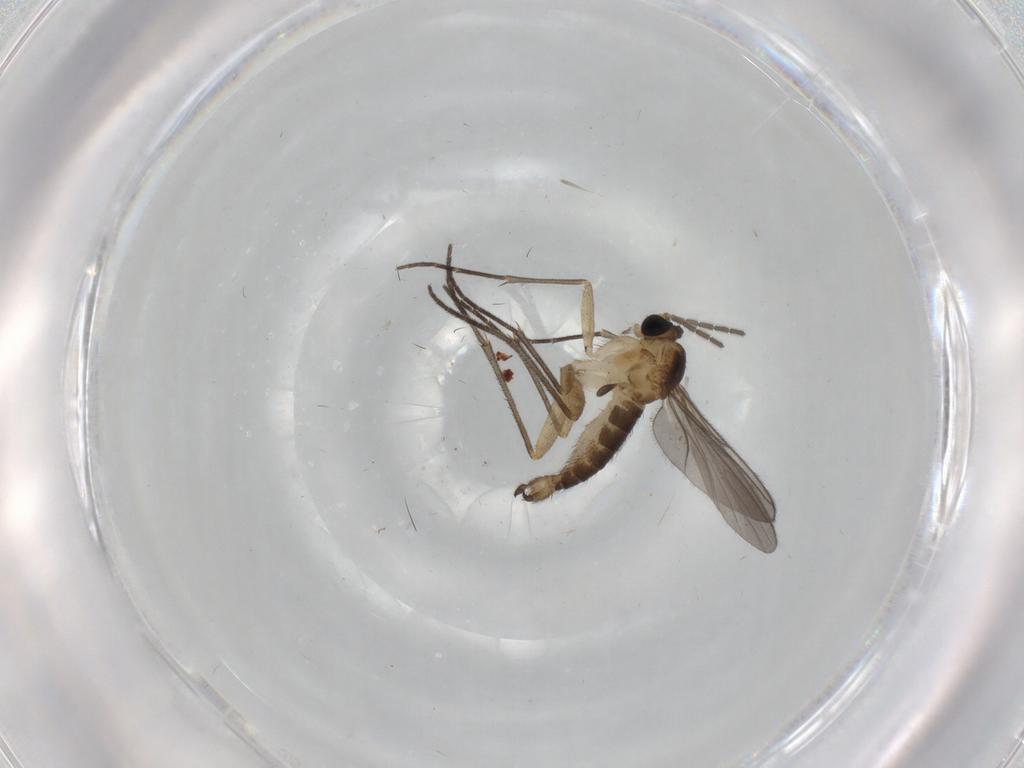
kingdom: Animalia
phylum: Arthropoda
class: Insecta
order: Diptera
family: Sciaridae
